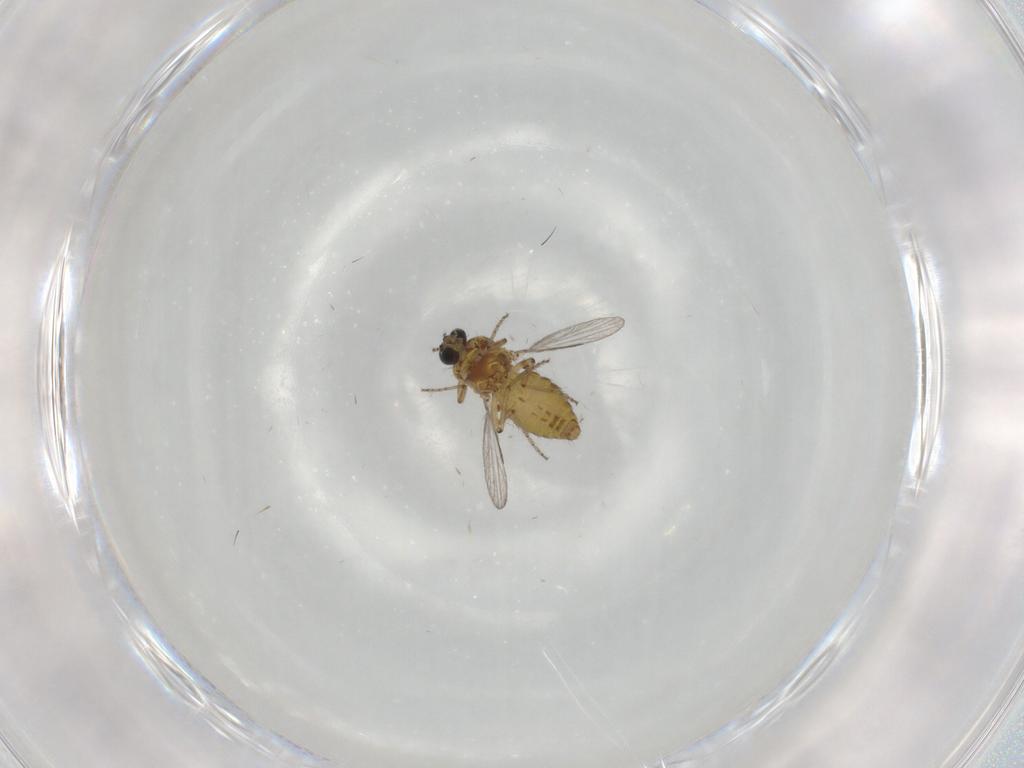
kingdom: Animalia
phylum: Arthropoda
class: Insecta
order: Diptera
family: Ceratopogonidae
